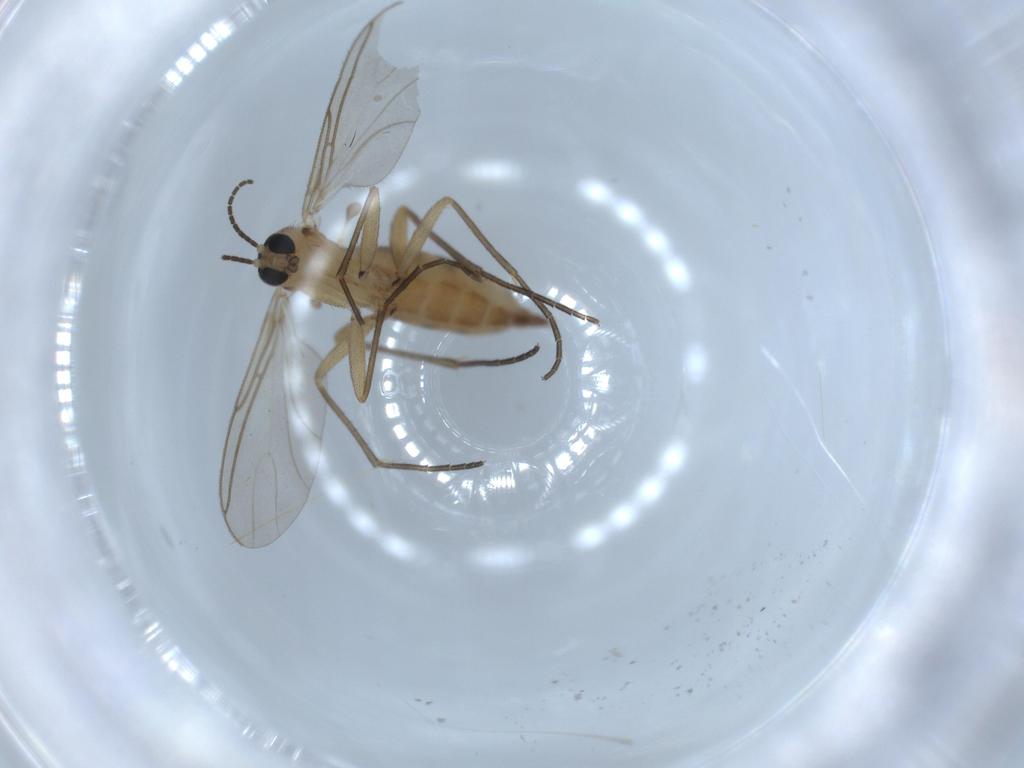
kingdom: Animalia
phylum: Arthropoda
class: Insecta
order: Diptera
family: Sciaridae
